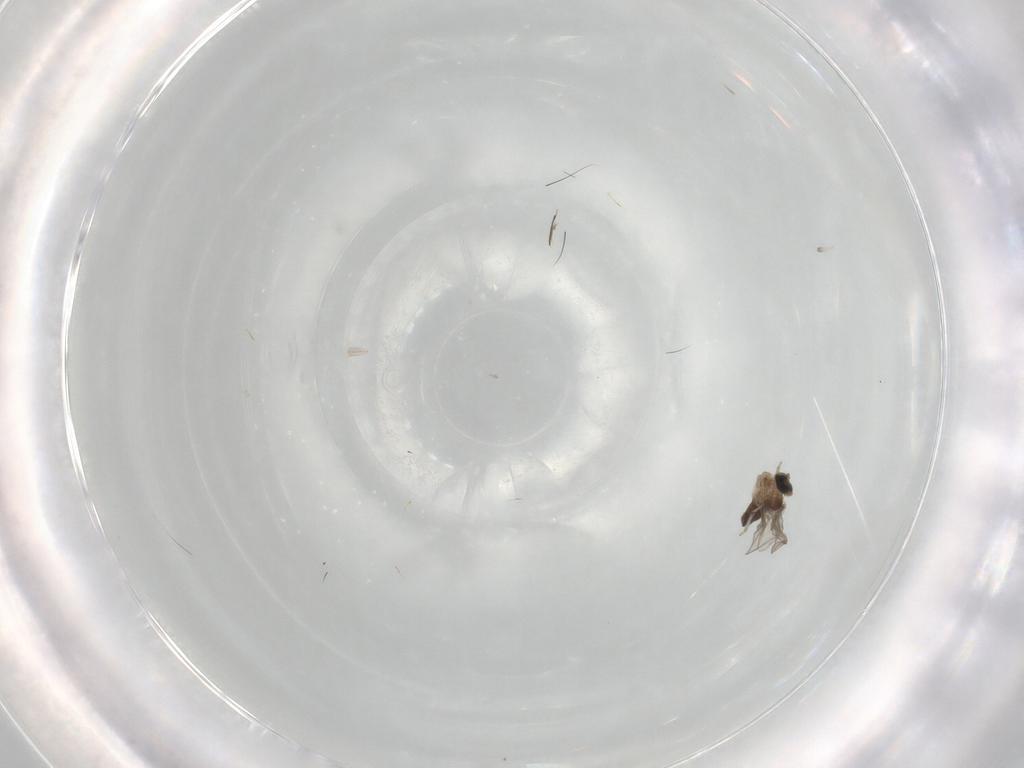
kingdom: Animalia
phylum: Arthropoda
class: Insecta
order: Diptera
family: Cecidomyiidae
